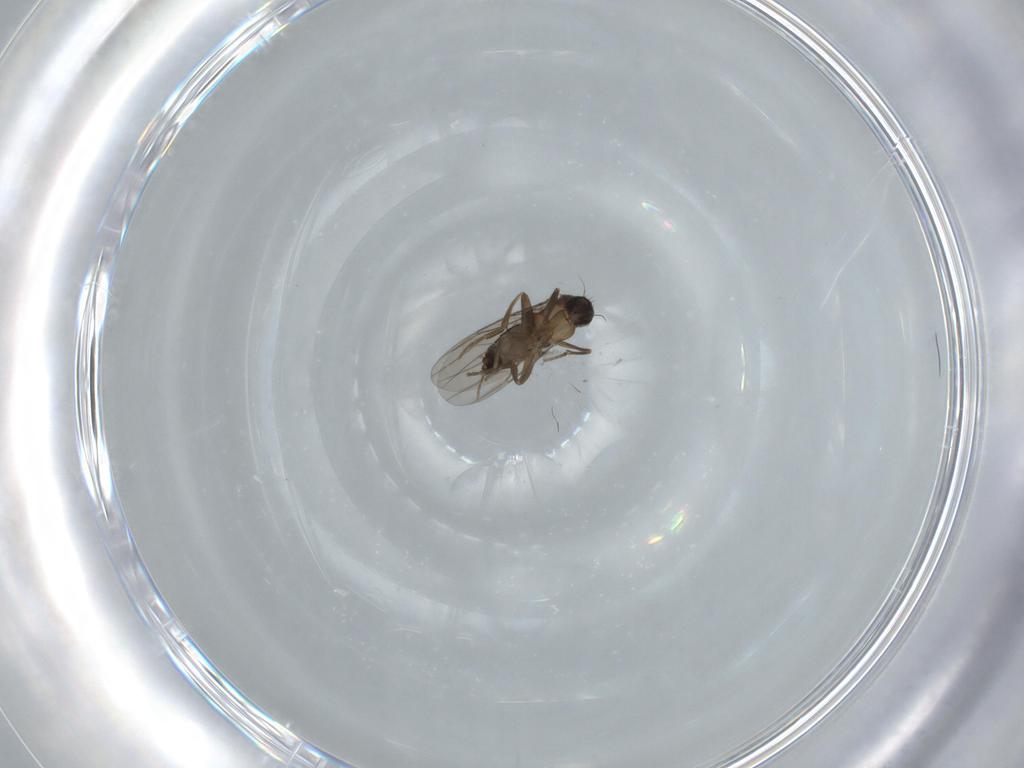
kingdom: Animalia
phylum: Arthropoda
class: Insecta
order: Diptera
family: Phoridae
